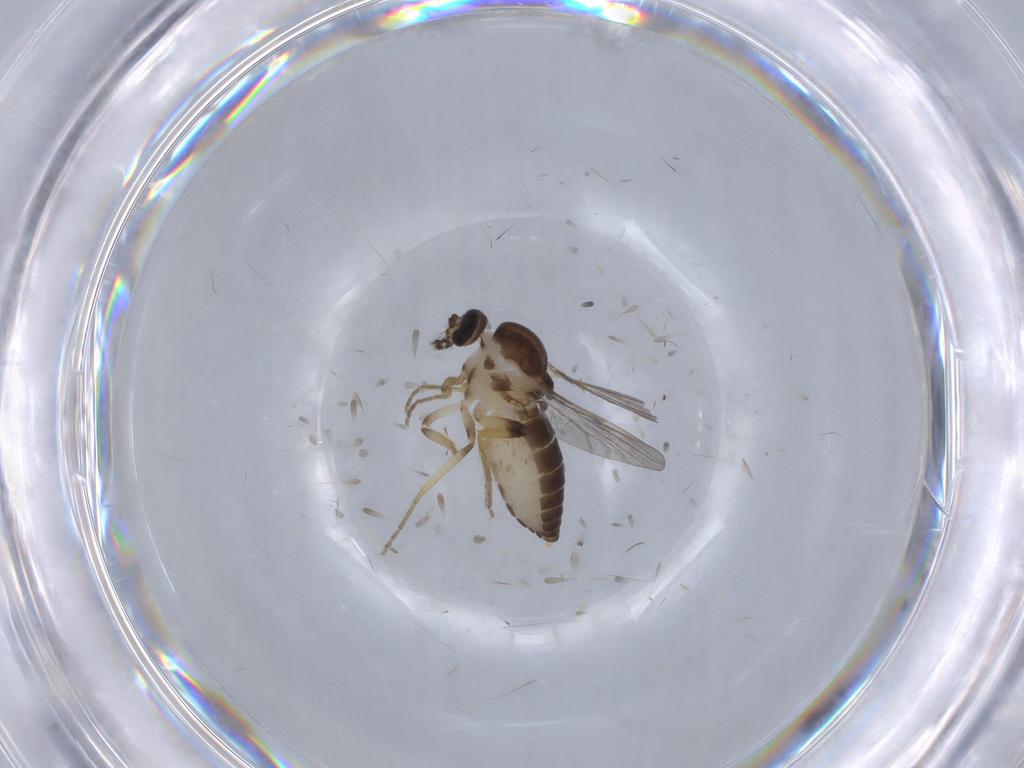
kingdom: Animalia
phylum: Arthropoda
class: Insecta
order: Diptera
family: Ceratopogonidae
